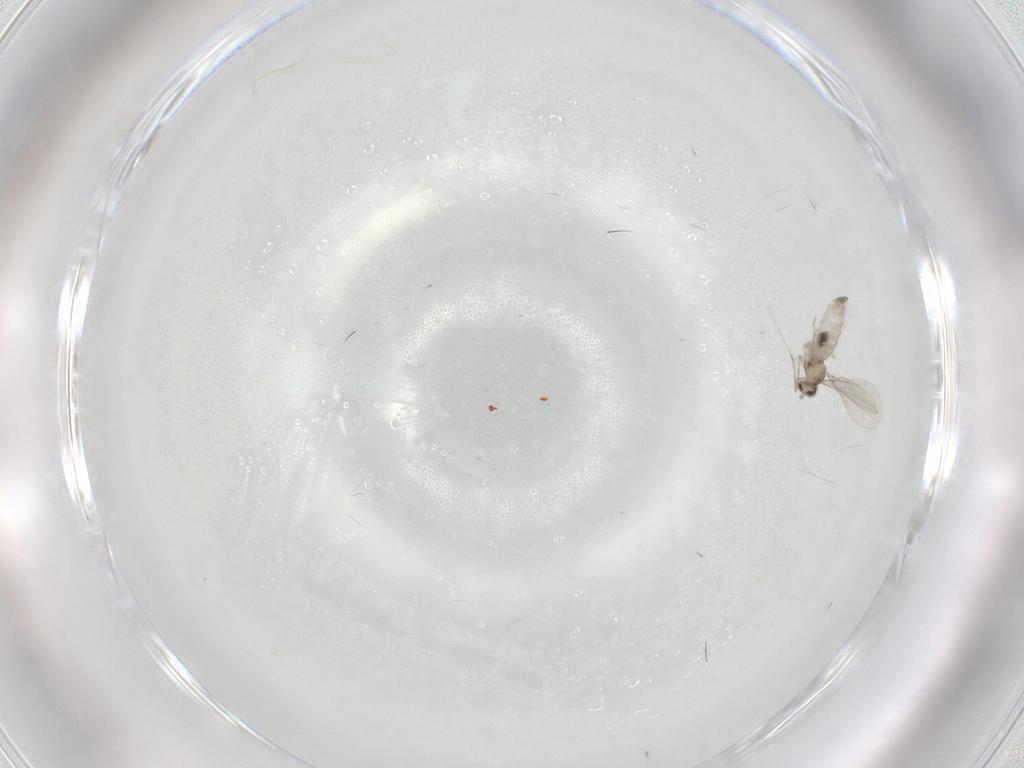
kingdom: Animalia
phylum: Arthropoda
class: Insecta
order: Diptera
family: Cecidomyiidae
